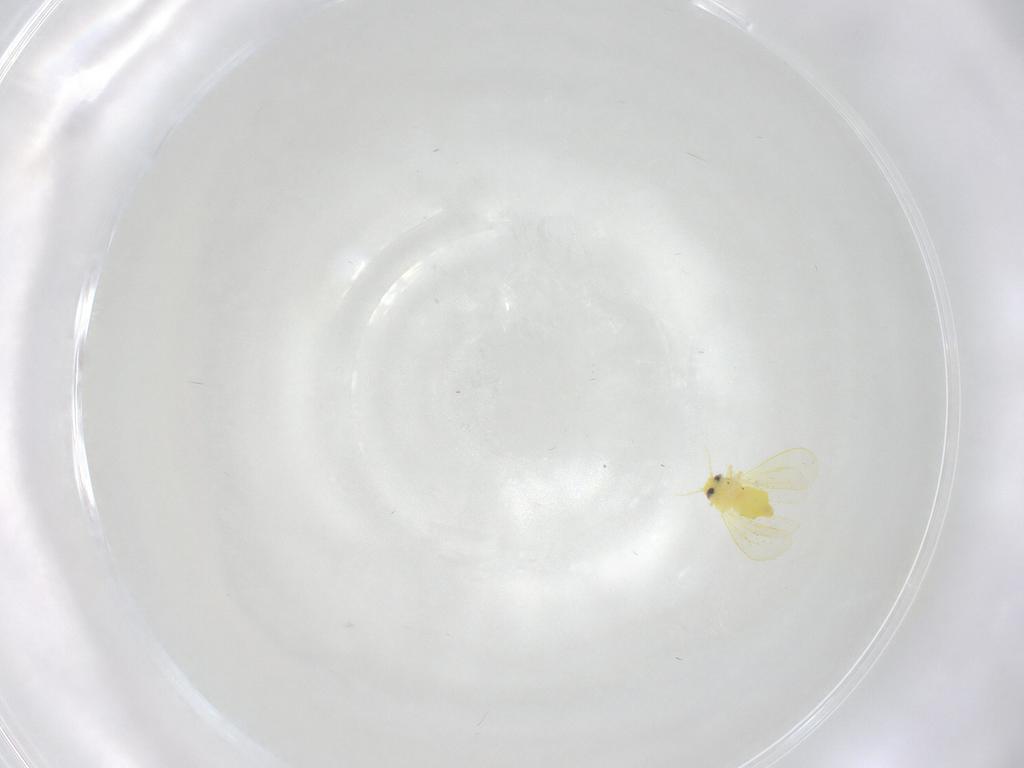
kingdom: Animalia
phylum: Arthropoda
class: Insecta
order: Hemiptera
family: Aleyrodidae
